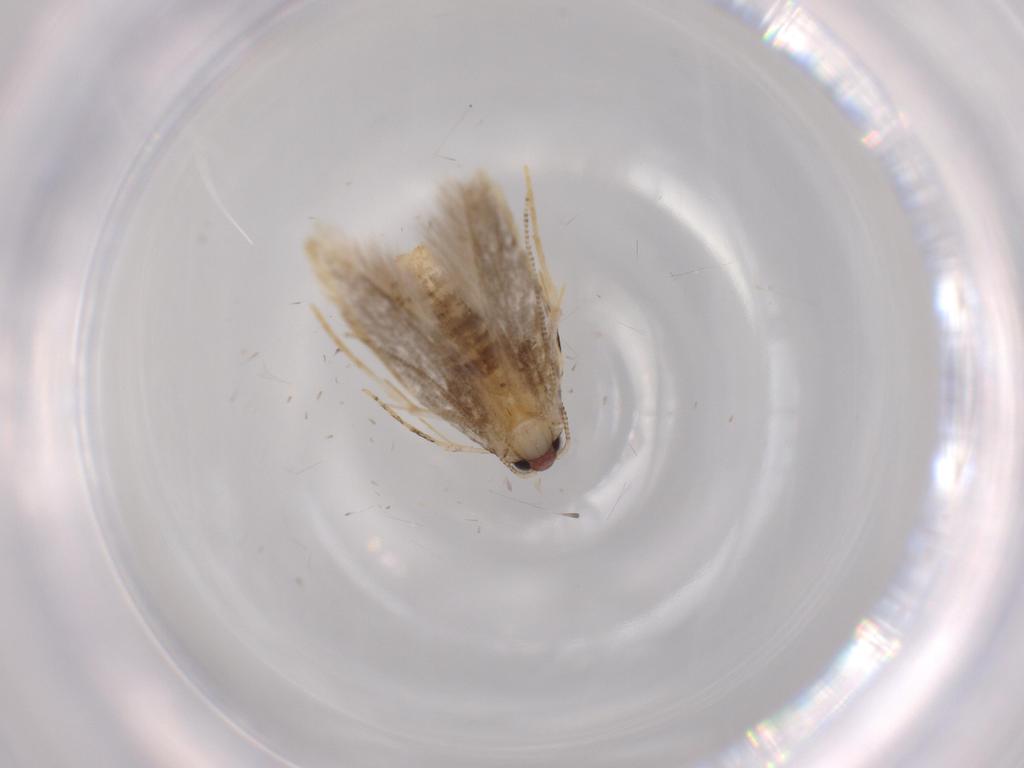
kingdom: Animalia
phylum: Arthropoda
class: Insecta
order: Lepidoptera
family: Tineidae
